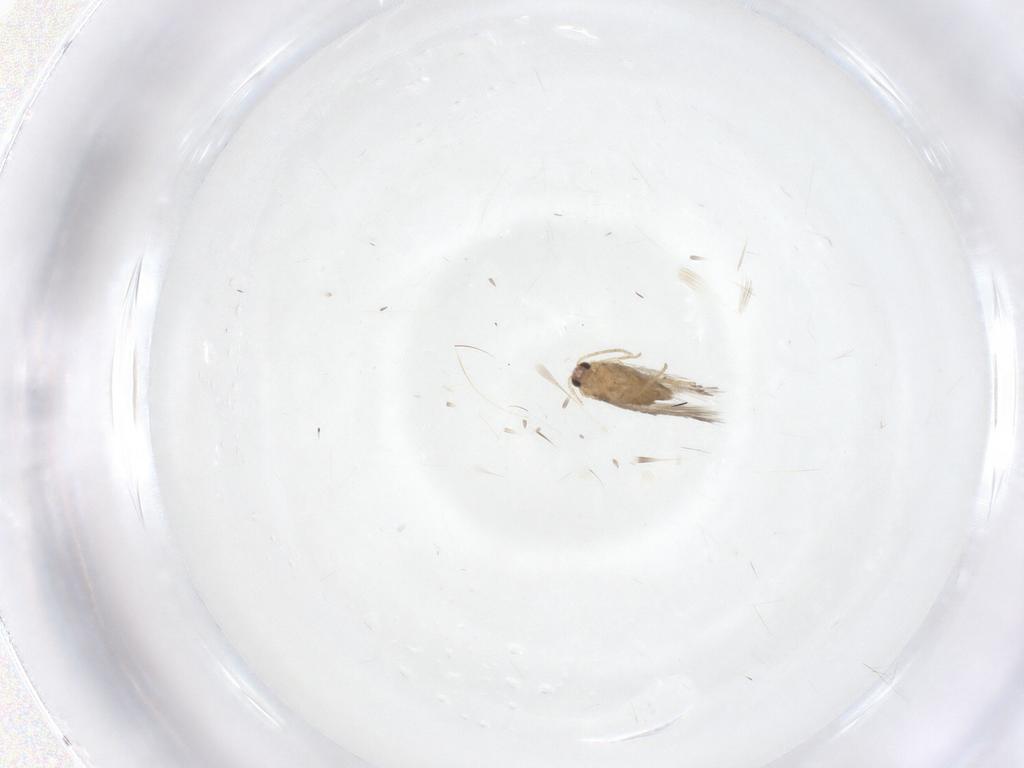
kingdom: Animalia
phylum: Arthropoda
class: Insecta
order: Lepidoptera
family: Nepticulidae
